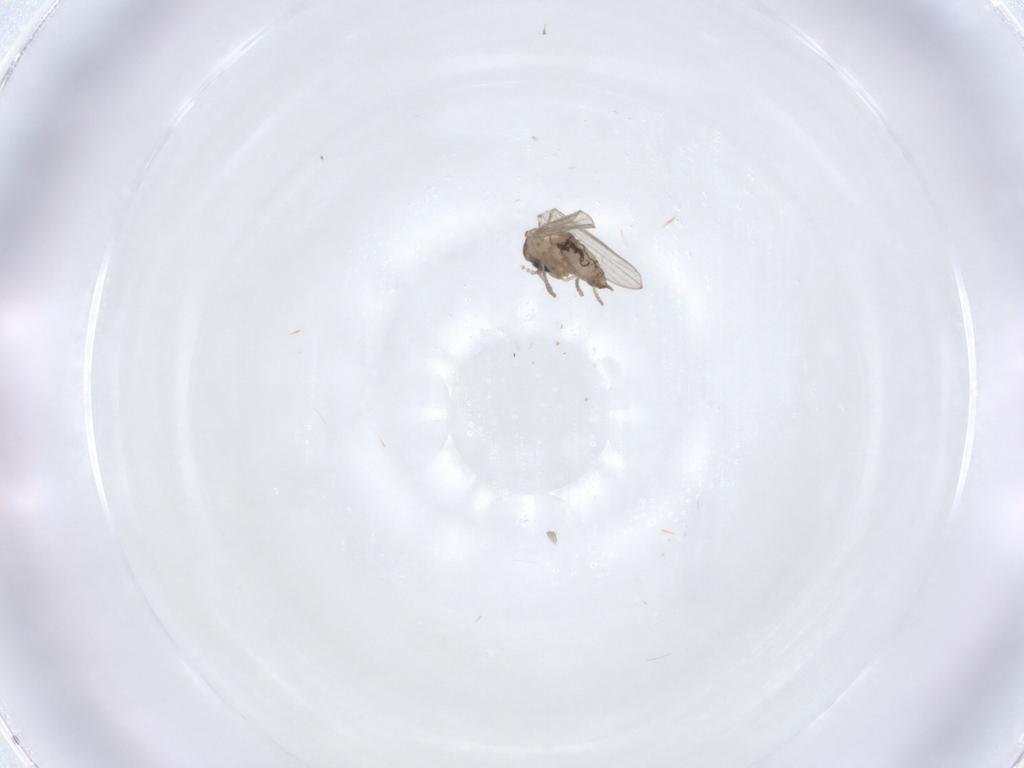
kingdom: Animalia
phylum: Arthropoda
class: Insecta
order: Diptera
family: Psychodidae
